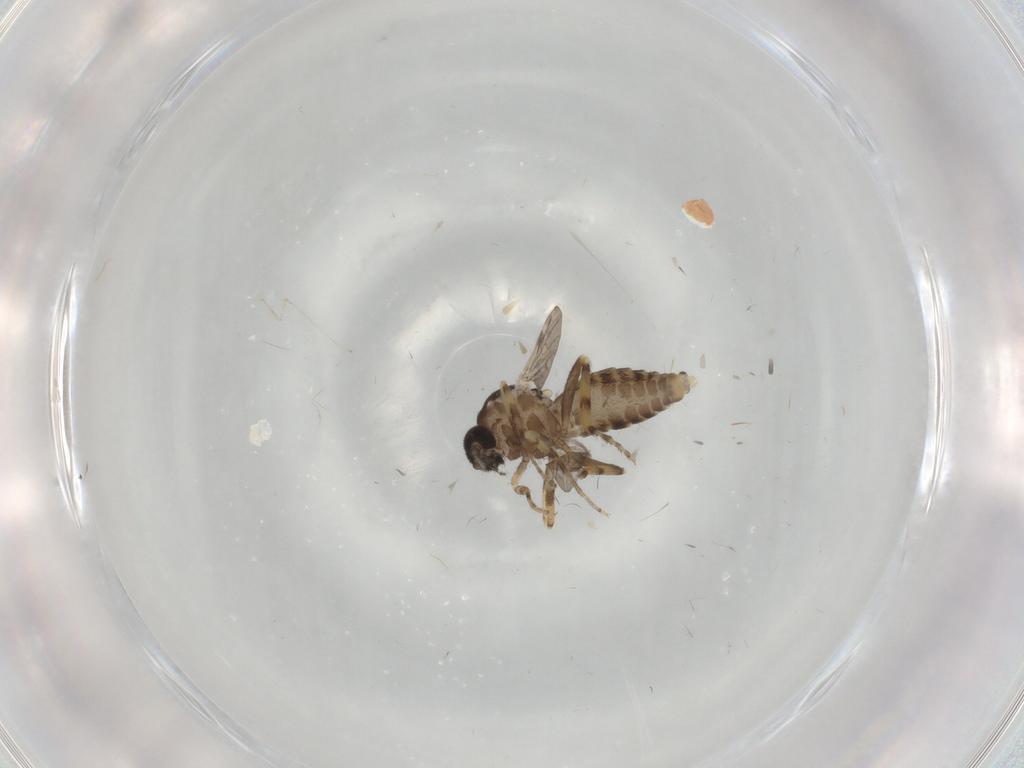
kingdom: Animalia
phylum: Arthropoda
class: Insecta
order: Diptera
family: Ceratopogonidae
